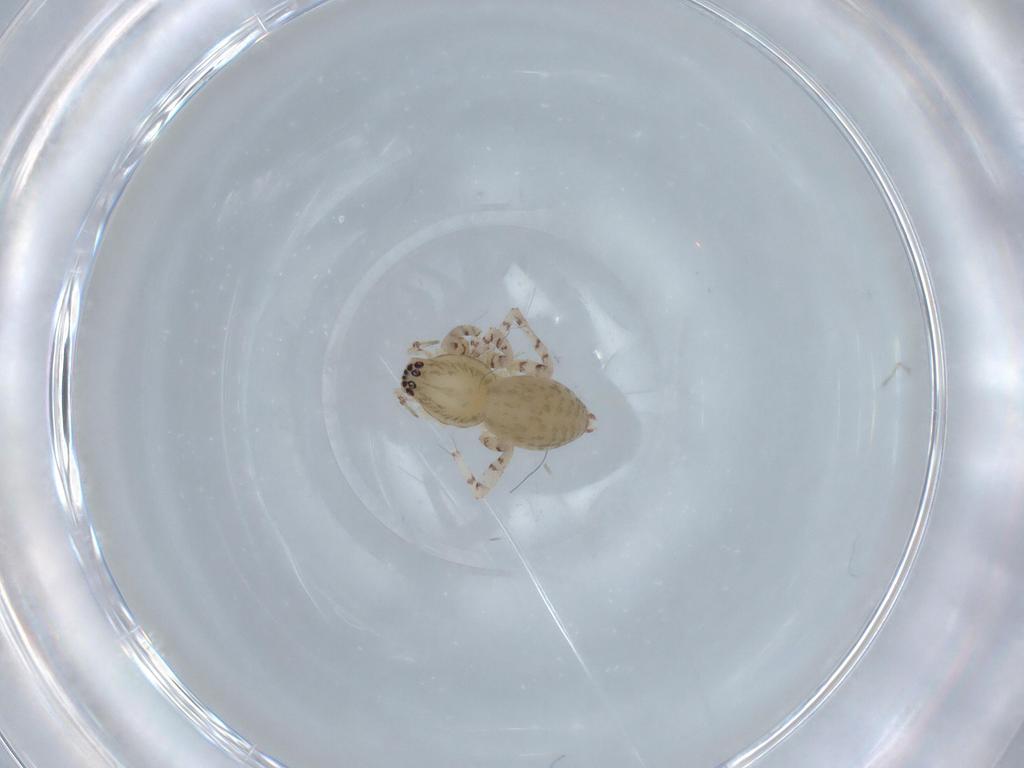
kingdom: Animalia
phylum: Arthropoda
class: Arachnida
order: Araneae
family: Anyphaenidae
